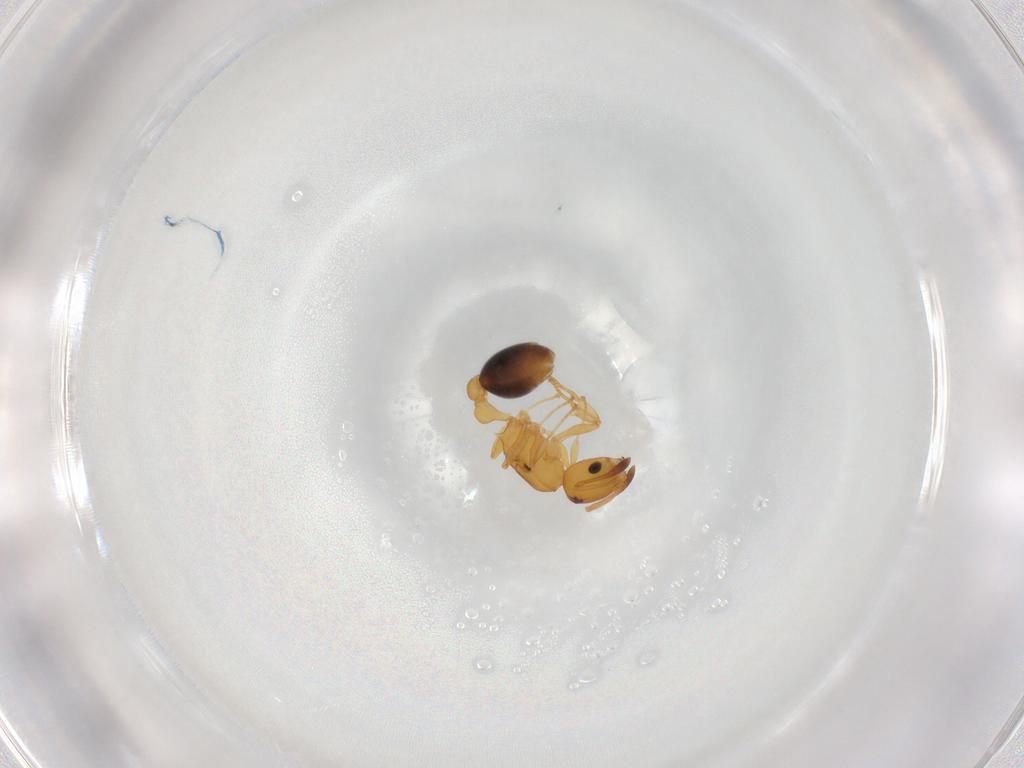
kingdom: Animalia
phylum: Arthropoda
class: Insecta
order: Hymenoptera
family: Formicidae
